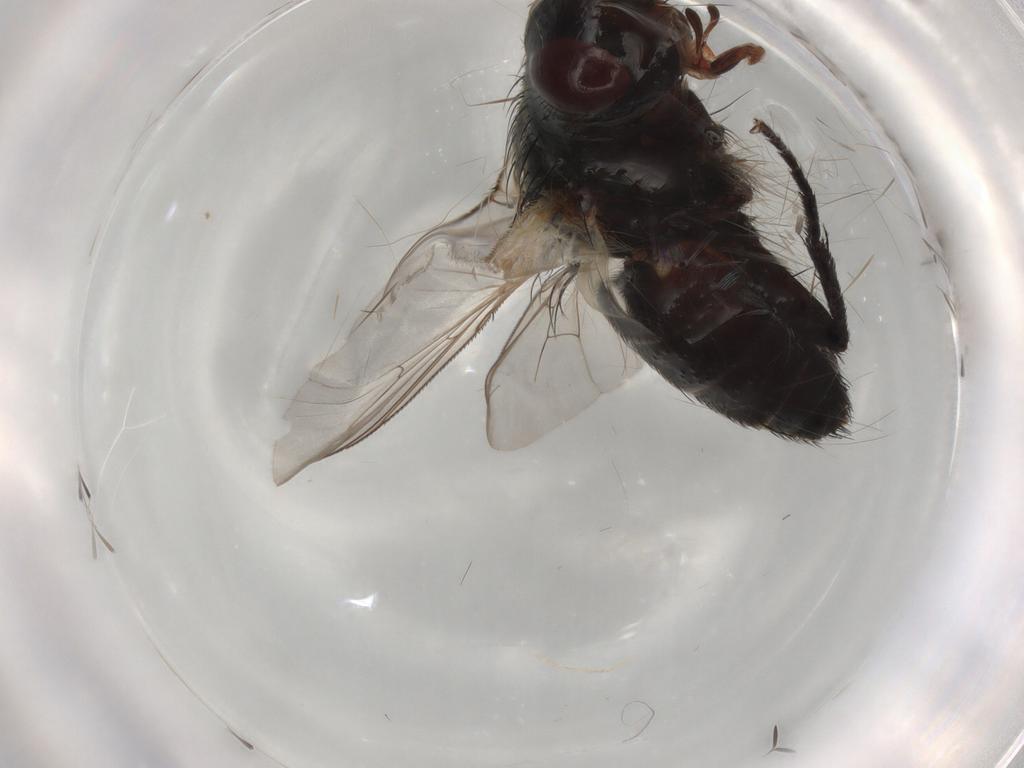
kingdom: Animalia
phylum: Arthropoda
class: Insecta
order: Diptera
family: Sarcophagidae
